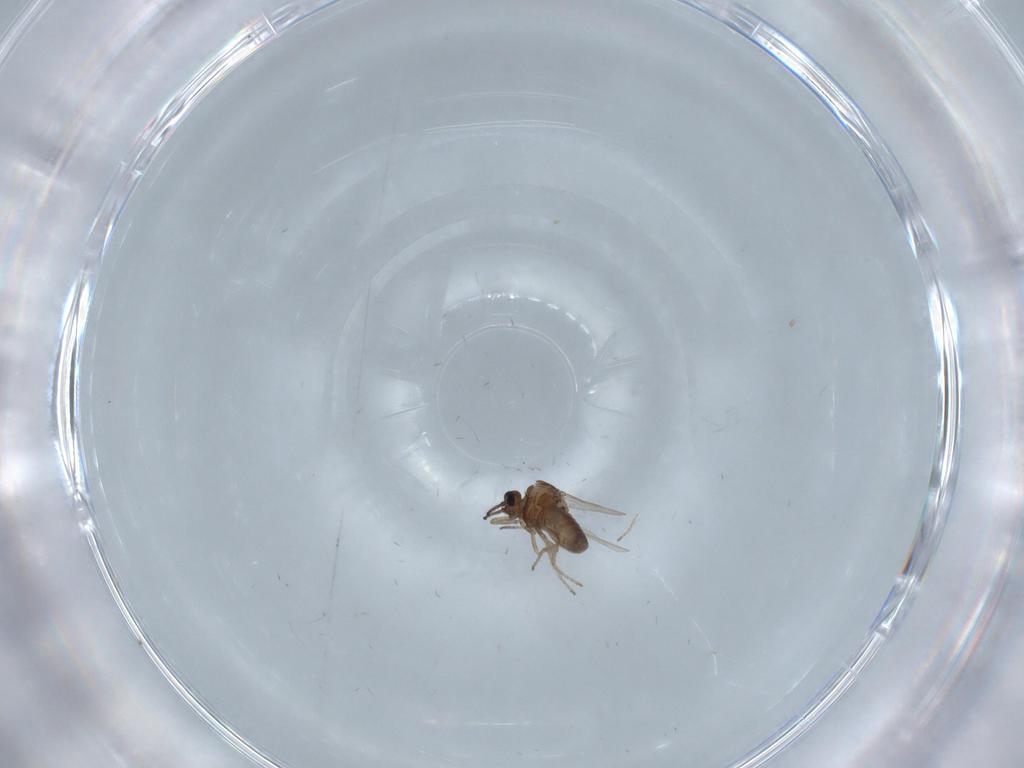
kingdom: Animalia
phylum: Arthropoda
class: Insecta
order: Diptera
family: Ceratopogonidae
